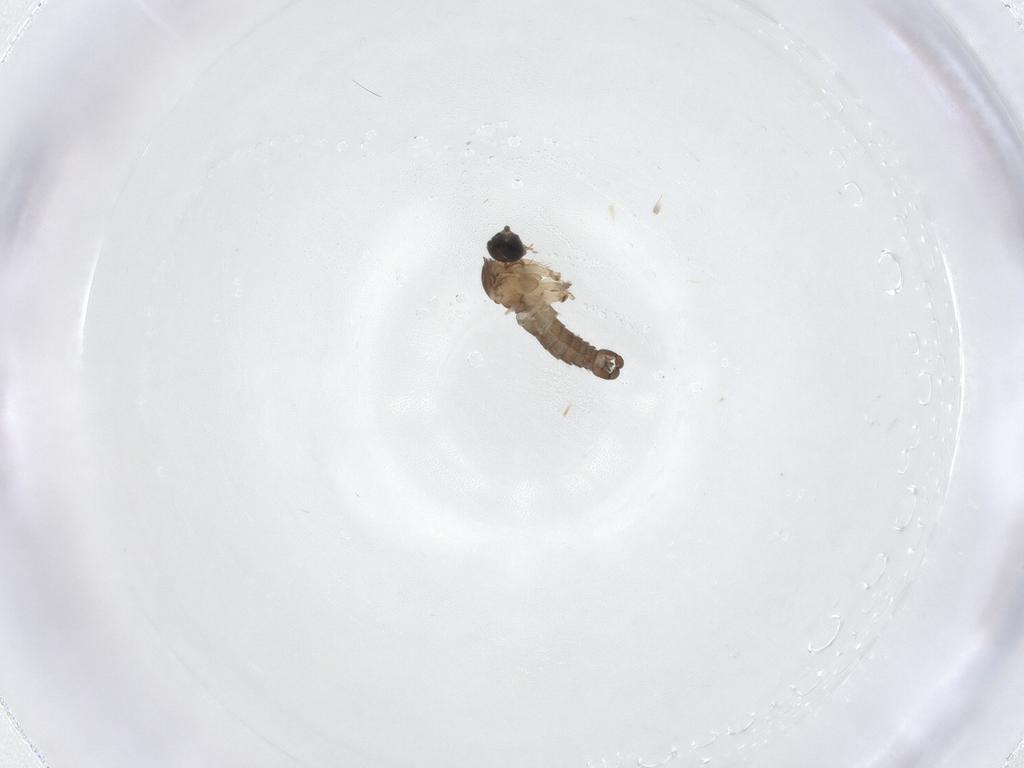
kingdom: Animalia
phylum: Arthropoda
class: Insecta
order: Diptera
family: Sciaridae
